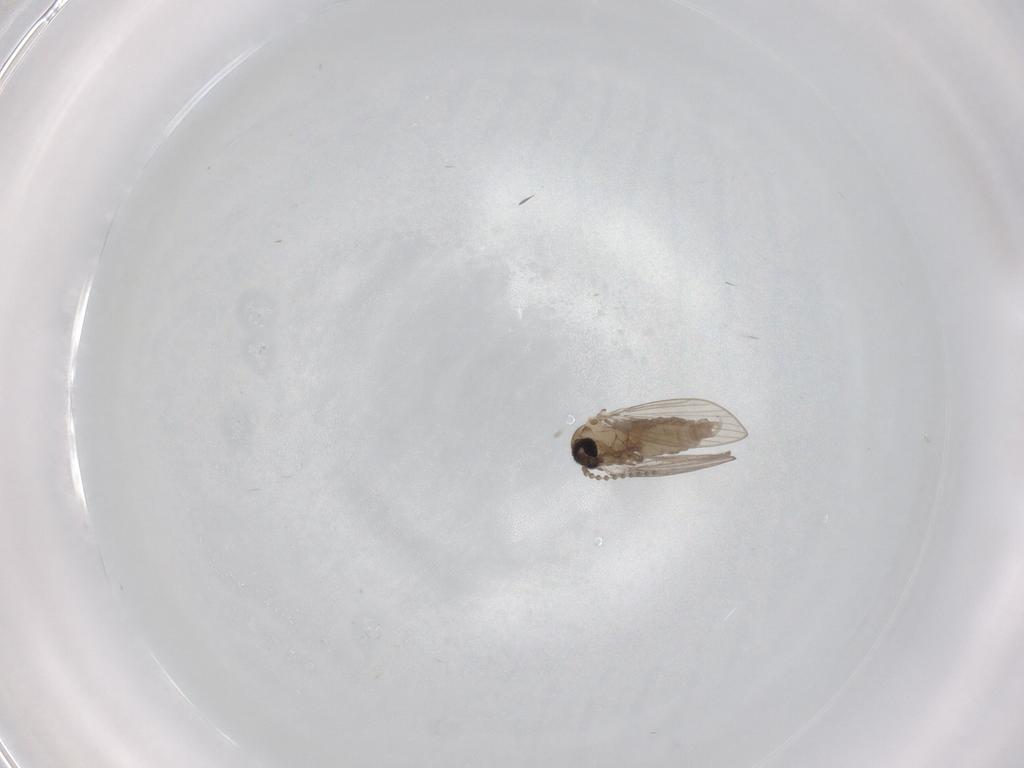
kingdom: Animalia
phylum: Arthropoda
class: Insecta
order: Diptera
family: Psychodidae
